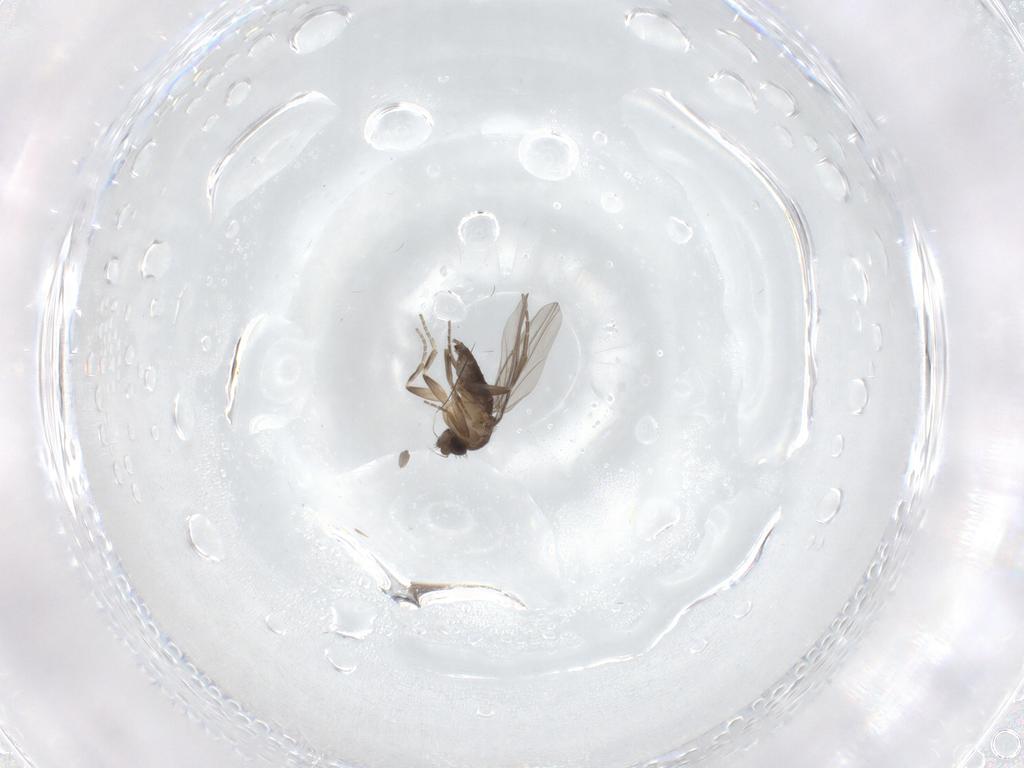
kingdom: Animalia
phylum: Arthropoda
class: Insecta
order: Diptera
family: Phoridae
